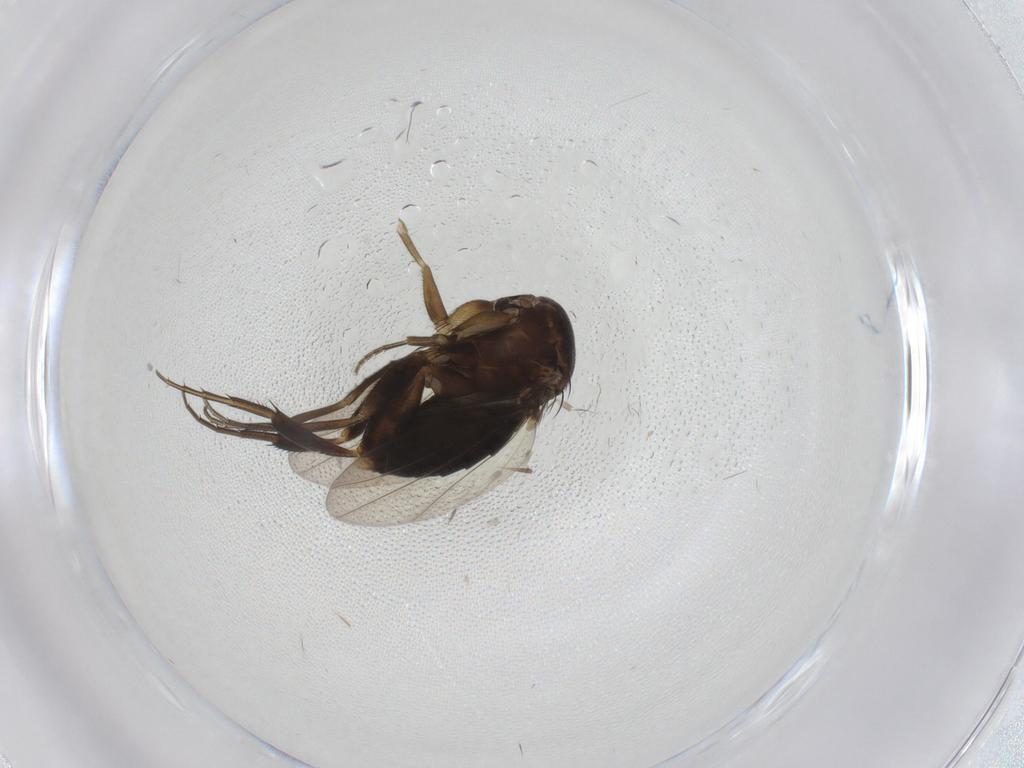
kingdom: Animalia
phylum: Arthropoda
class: Insecta
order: Diptera
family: Phoridae
